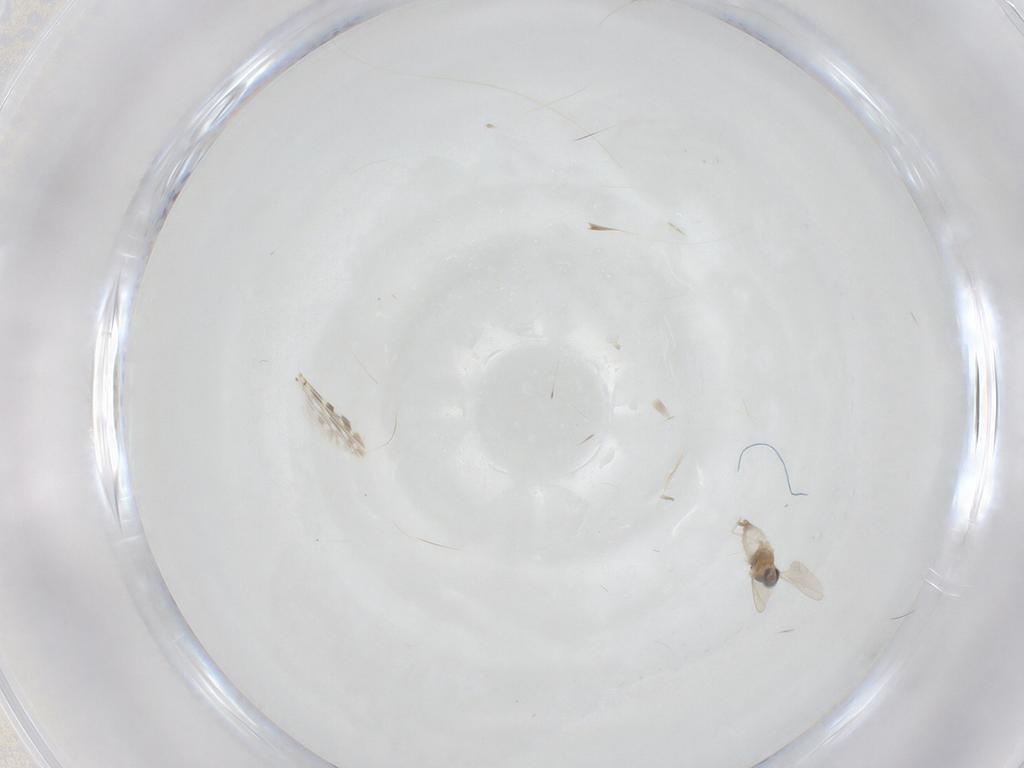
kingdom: Animalia
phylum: Arthropoda
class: Insecta
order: Diptera
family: Cecidomyiidae
